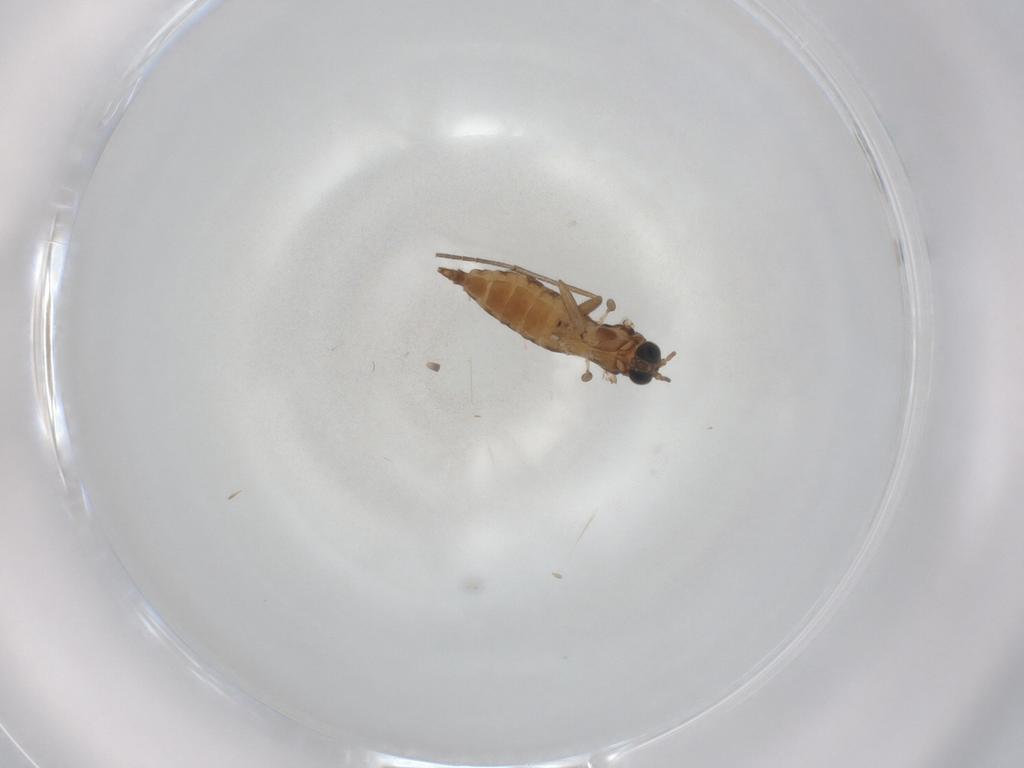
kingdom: Animalia
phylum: Arthropoda
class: Insecta
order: Diptera
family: Sciaridae
